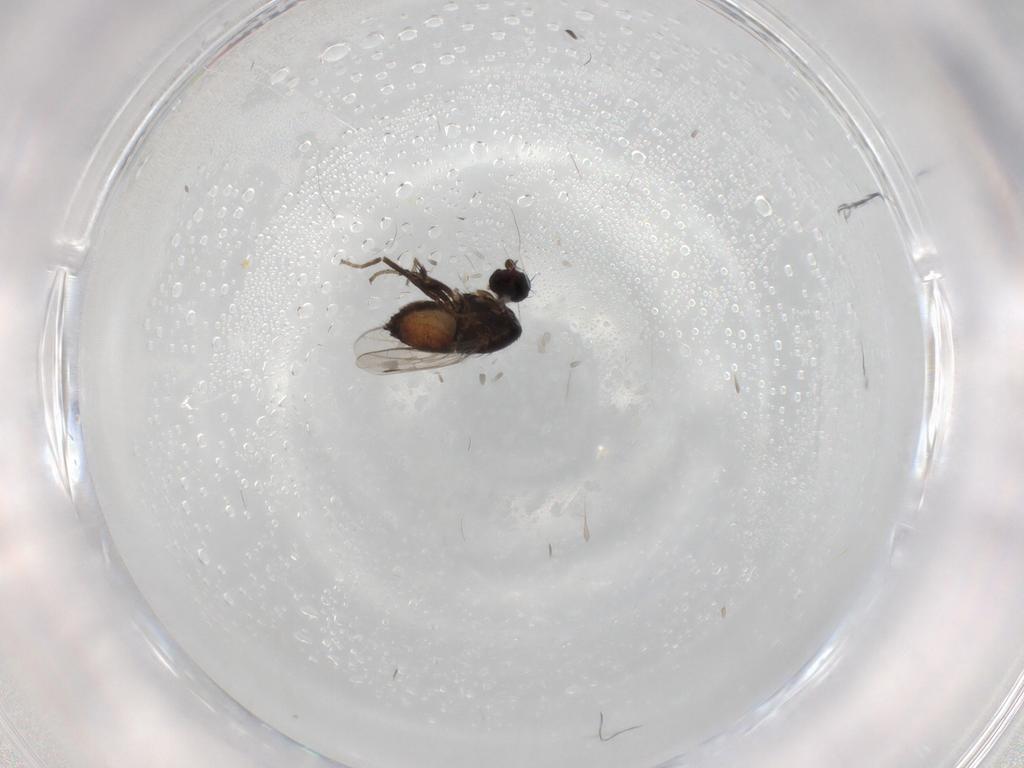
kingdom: Animalia
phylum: Arthropoda
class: Insecta
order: Diptera
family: Sphaeroceridae
